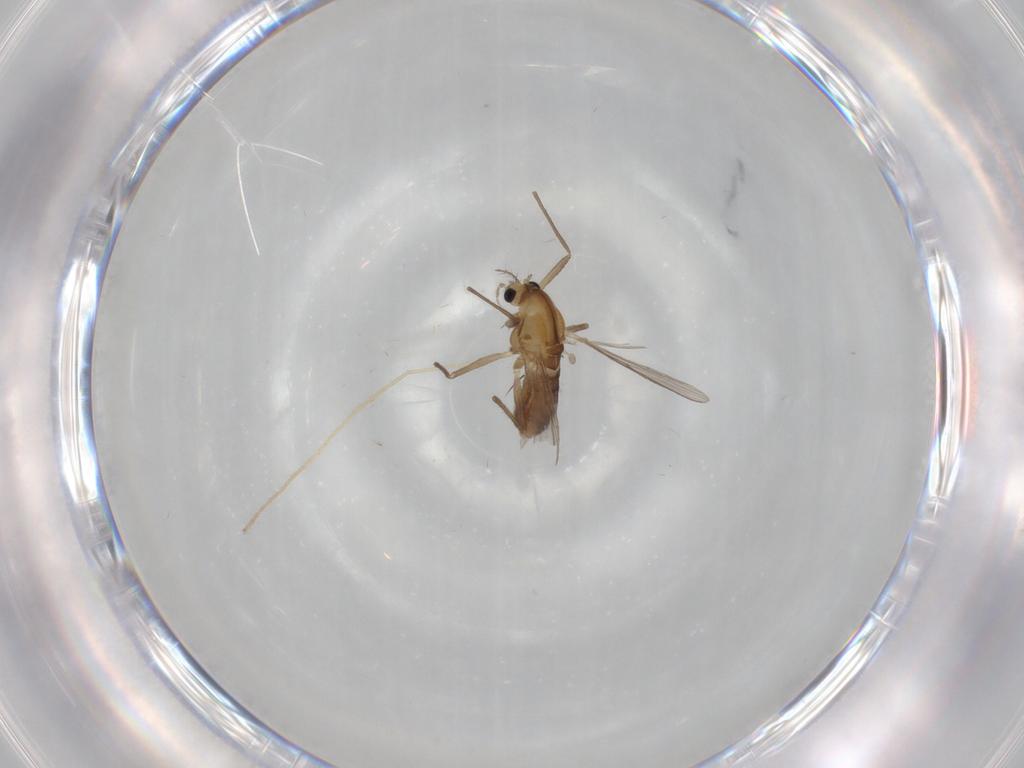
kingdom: Animalia
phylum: Arthropoda
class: Insecta
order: Diptera
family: Chironomidae
